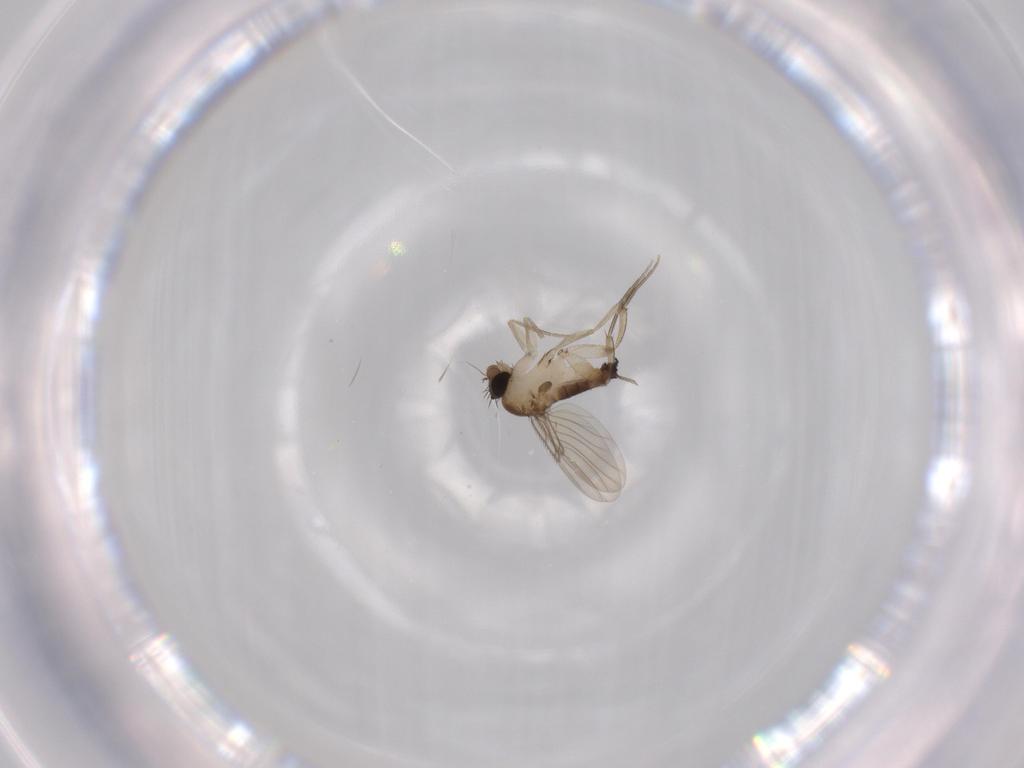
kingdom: Animalia
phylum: Arthropoda
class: Insecta
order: Diptera
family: Phoridae
